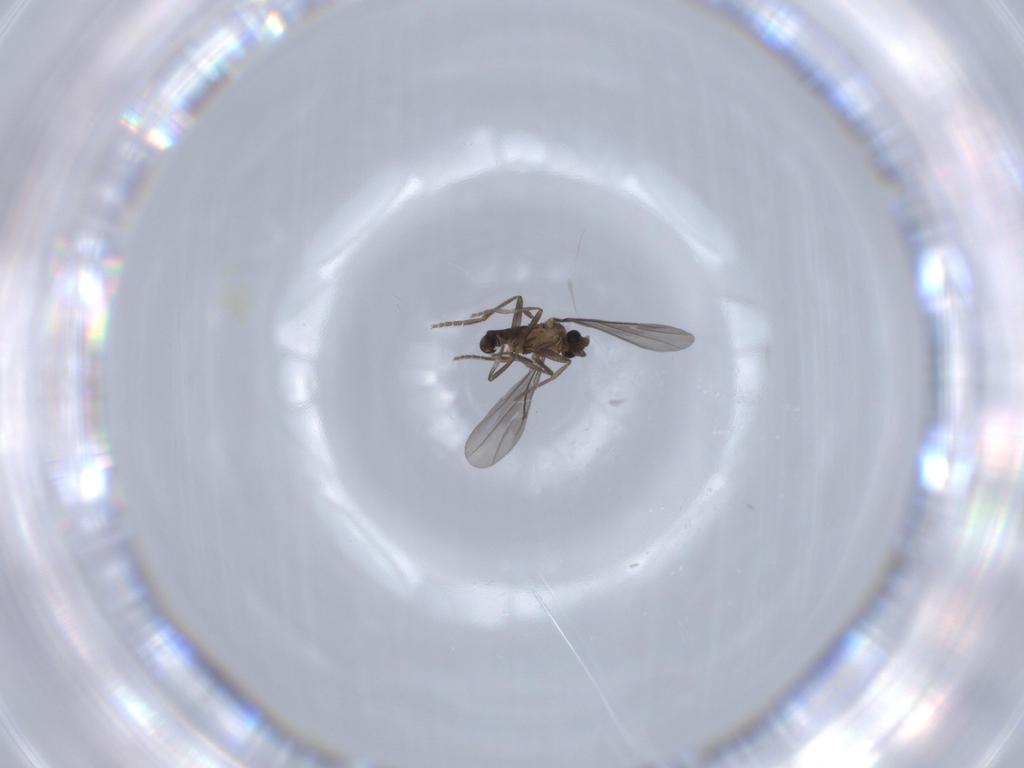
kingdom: Animalia
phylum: Arthropoda
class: Insecta
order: Diptera
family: Phoridae
